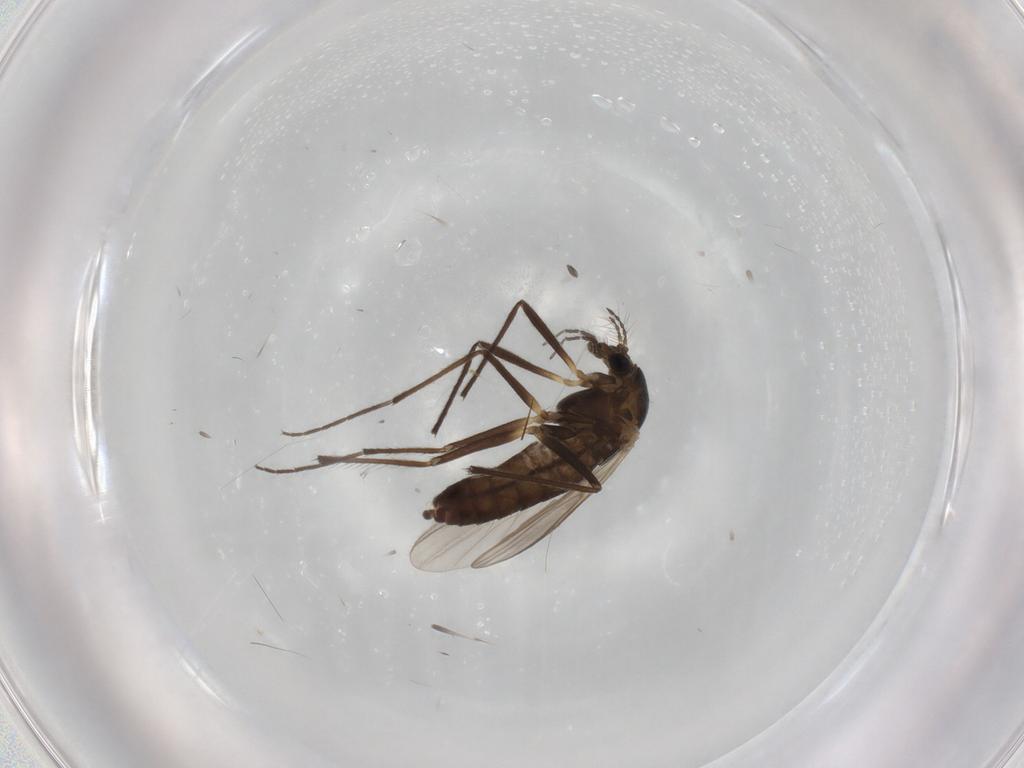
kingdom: Animalia
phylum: Arthropoda
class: Insecta
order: Diptera
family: Chironomidae
